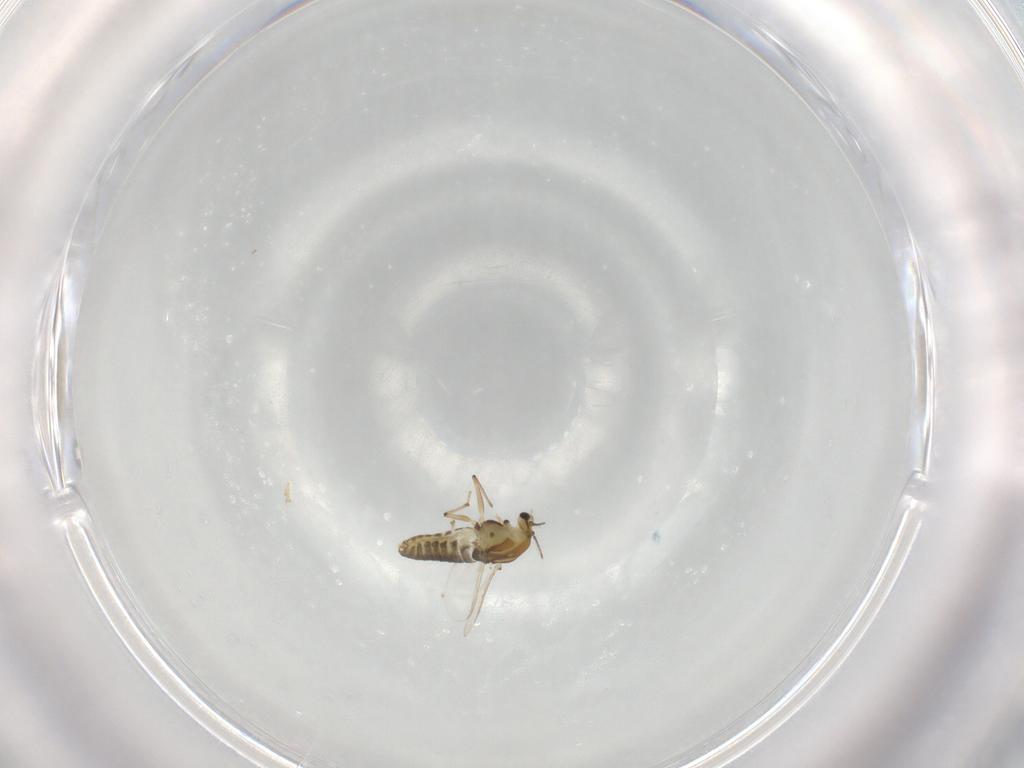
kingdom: Animalia
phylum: Arthropoda
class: Insecta
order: Diptera
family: Chironomidae
